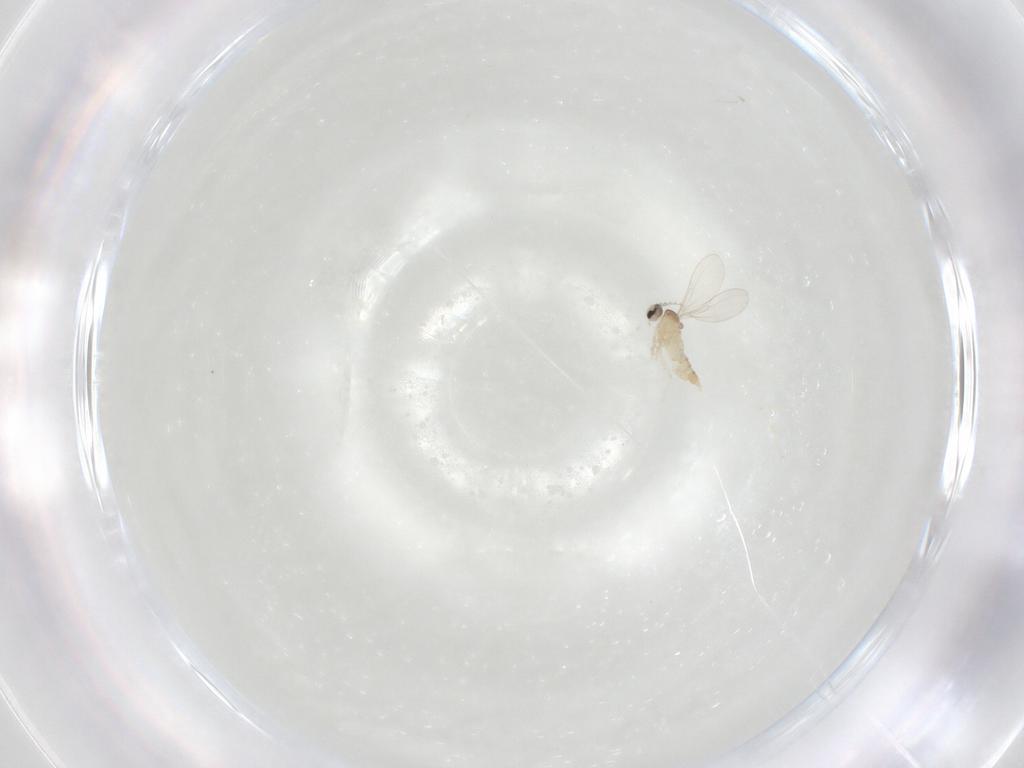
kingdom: Animalia
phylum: Arthropoda
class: Insecta
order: Diptera
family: Cecidomyiidae
